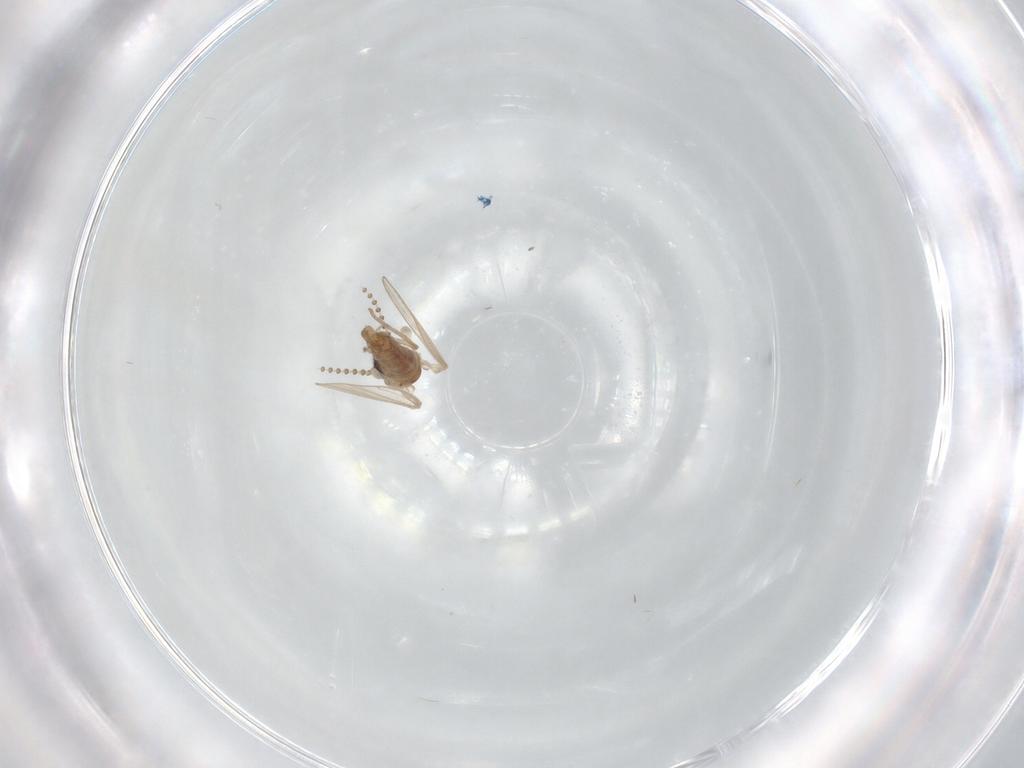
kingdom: Animalia
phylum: Arthropoda
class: Insecta
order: Diptera
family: Psychodidae
